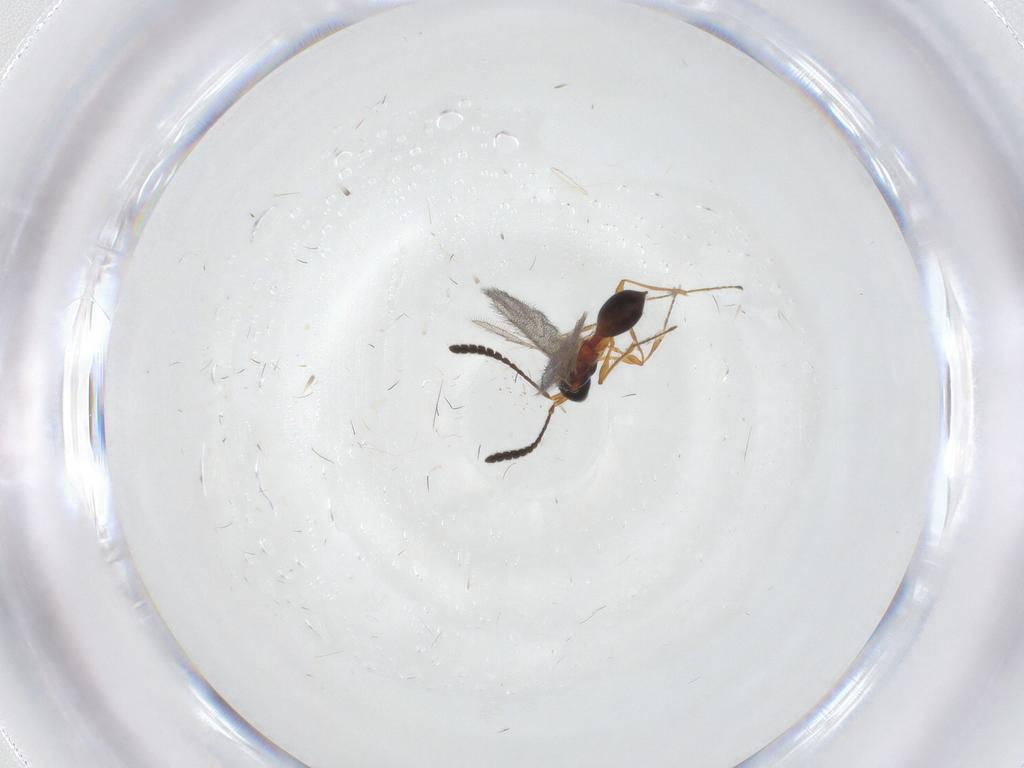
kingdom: Animalia
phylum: Arthropoda
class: Insecta
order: Hymenoptera
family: Diapriidae
